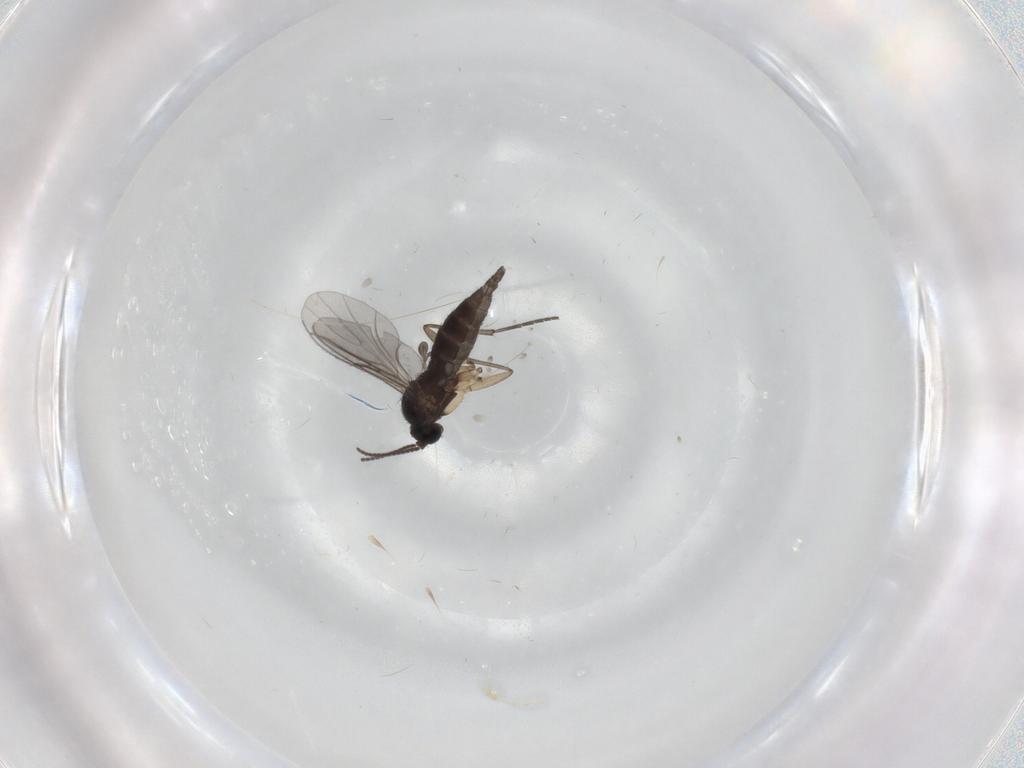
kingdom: Animalia
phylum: Arthropoda
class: Insecta
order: Diptera
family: Sciaridae
